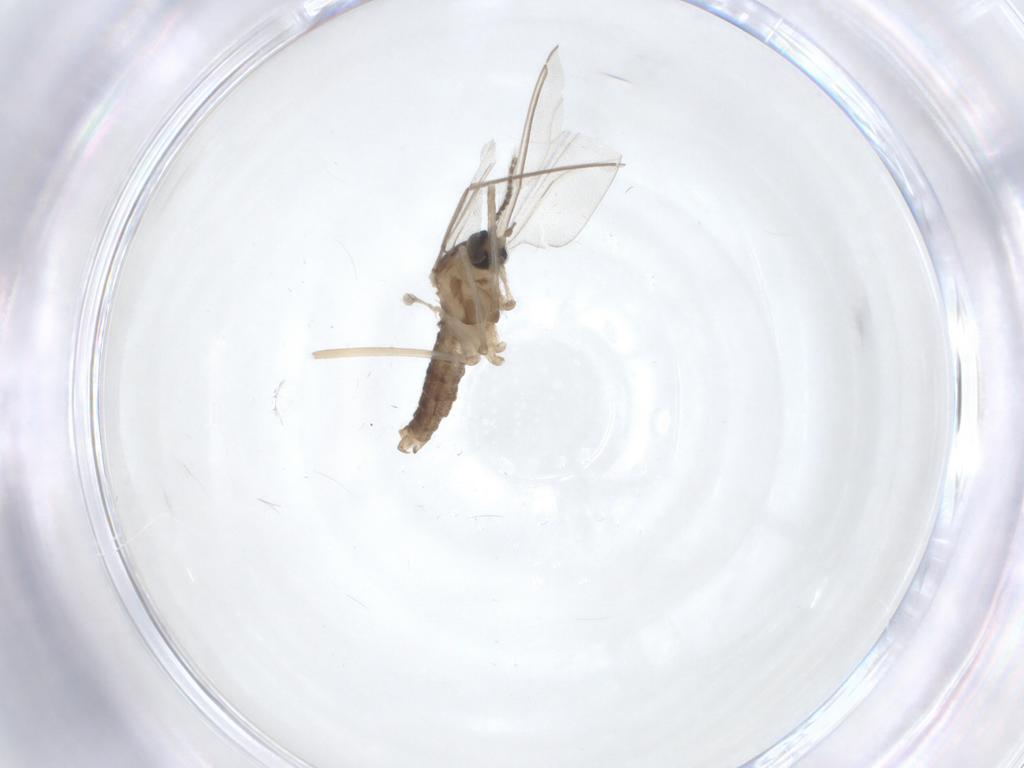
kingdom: Animalia
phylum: Arthropoda
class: Insecta
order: Diptera
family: Cecidomyiidae
